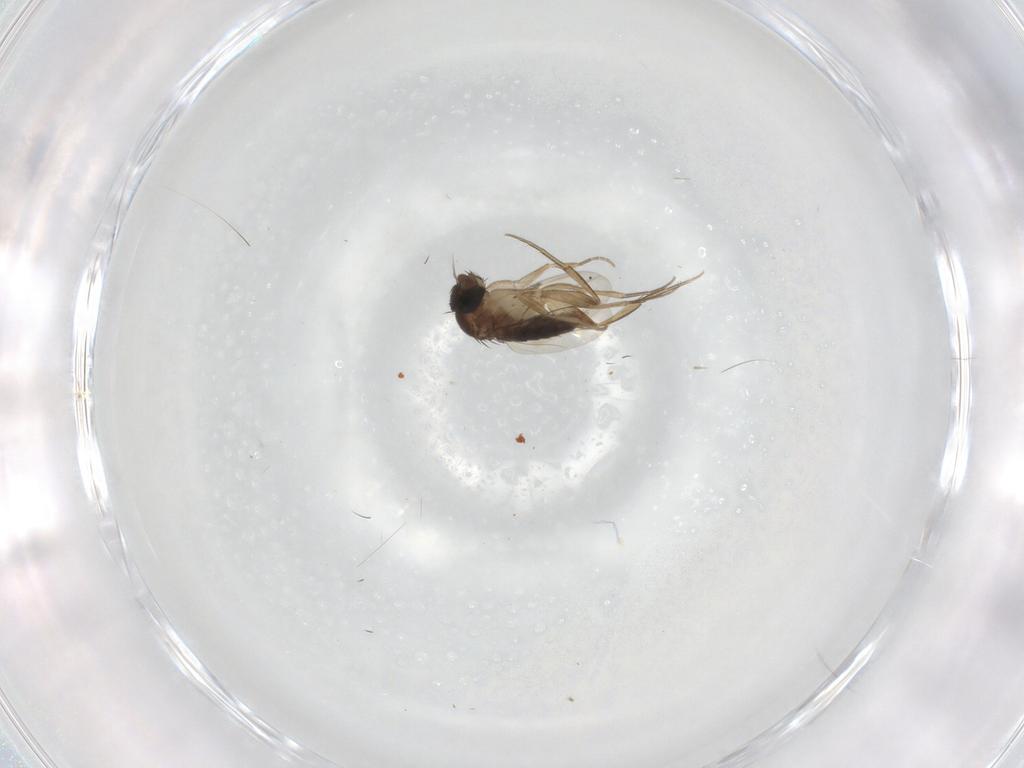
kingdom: Animalia
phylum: Arthropoda
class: Insecta
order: Diptera
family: Phoridae
